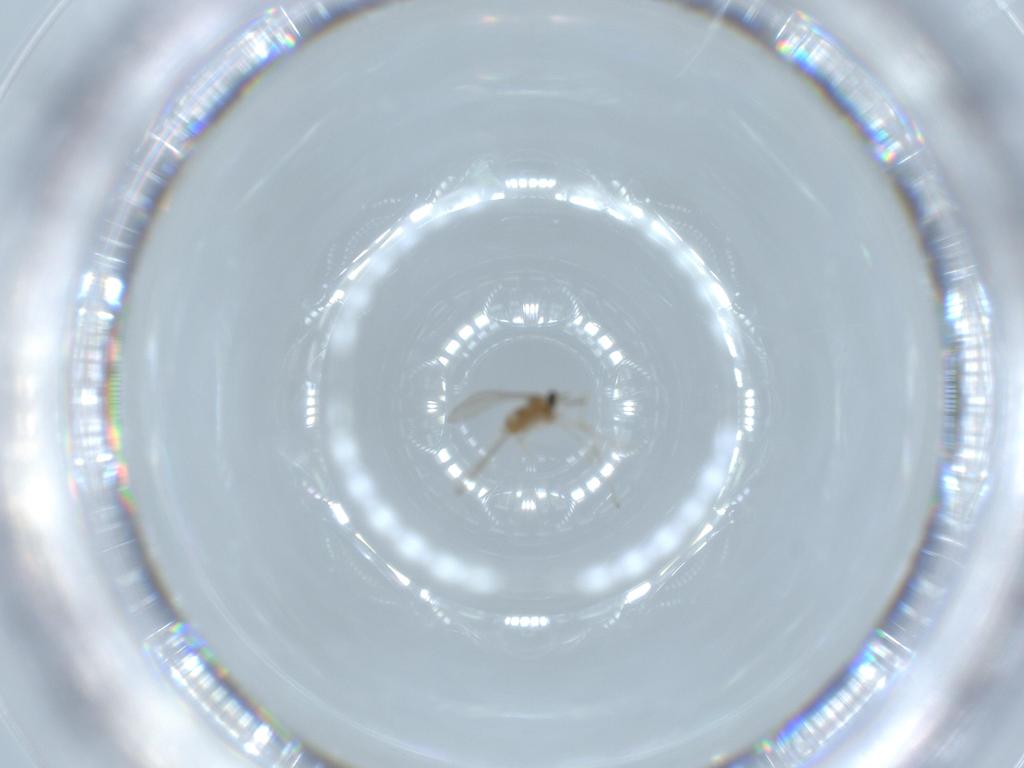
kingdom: Animalia
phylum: Arthropoda
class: Insecta
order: Diptera
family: Cecidomyiidae
